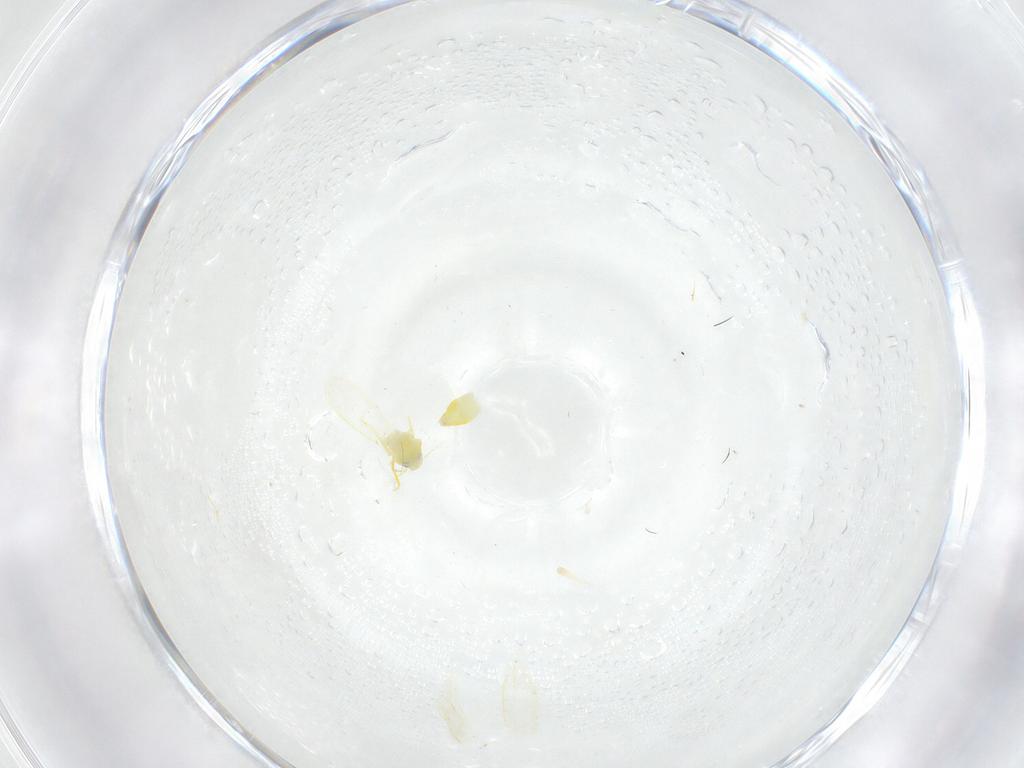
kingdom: Animalia
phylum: Arthropoda
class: Insecta
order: Hemiptera
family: Aleyrodidae
